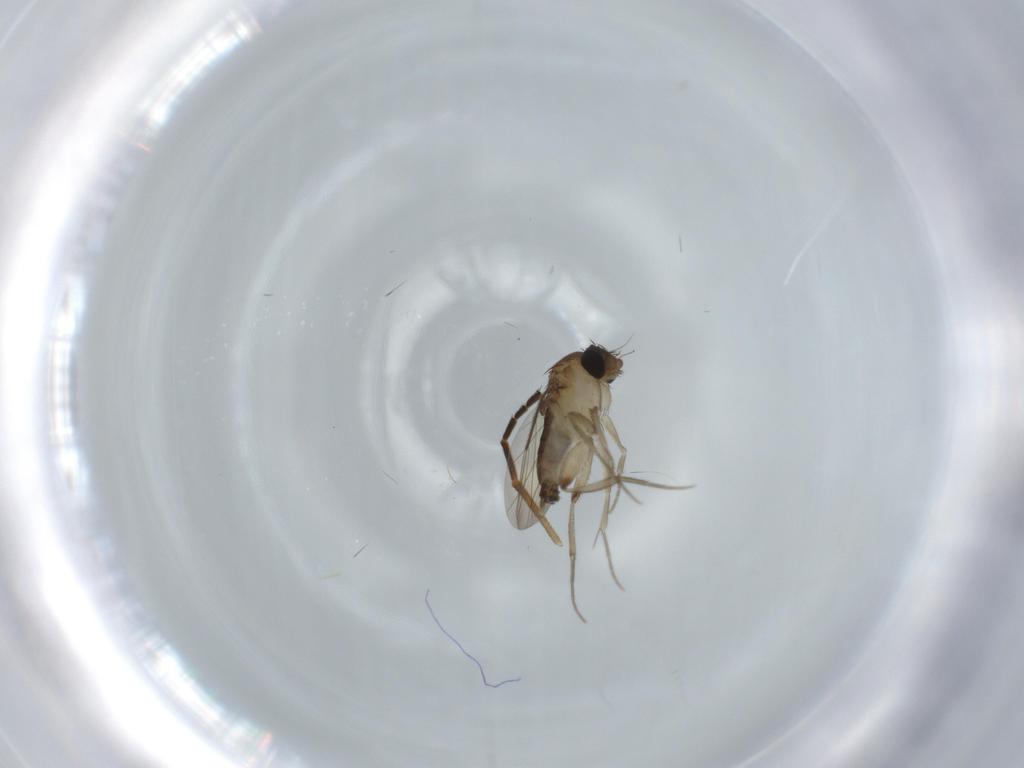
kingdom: Animalia
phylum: Arthropoda
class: Insecta
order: Diptera
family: Phoridae
